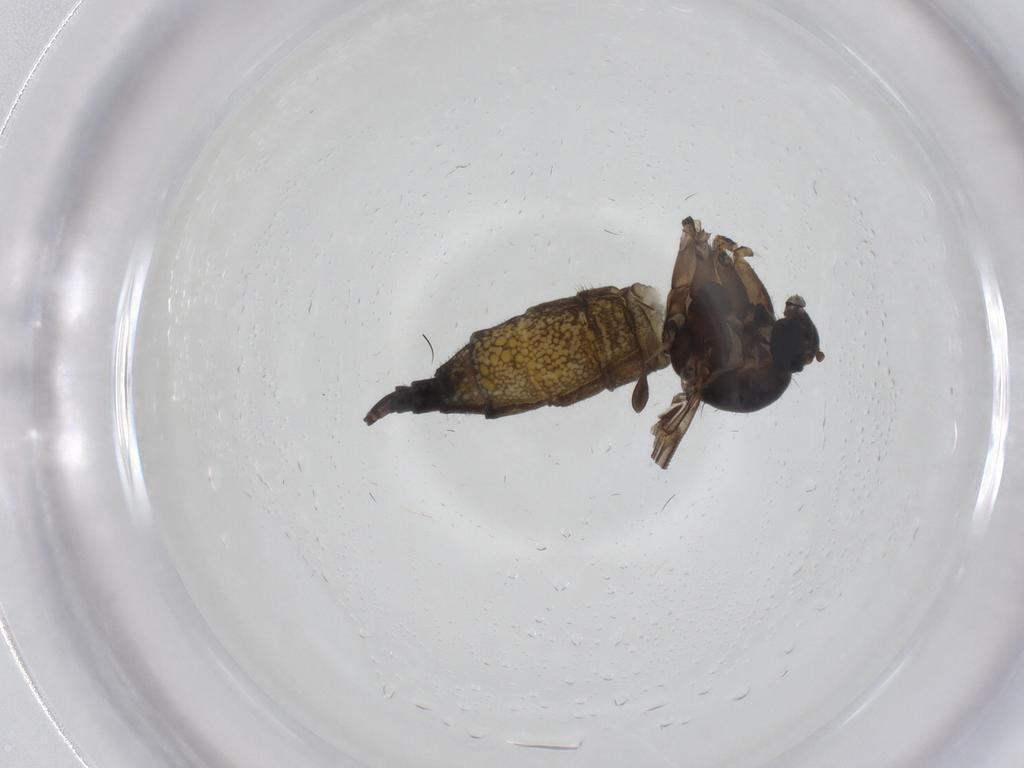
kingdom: Animalia
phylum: Arthropoda
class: Insecta
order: Diptera
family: Sciaridae
